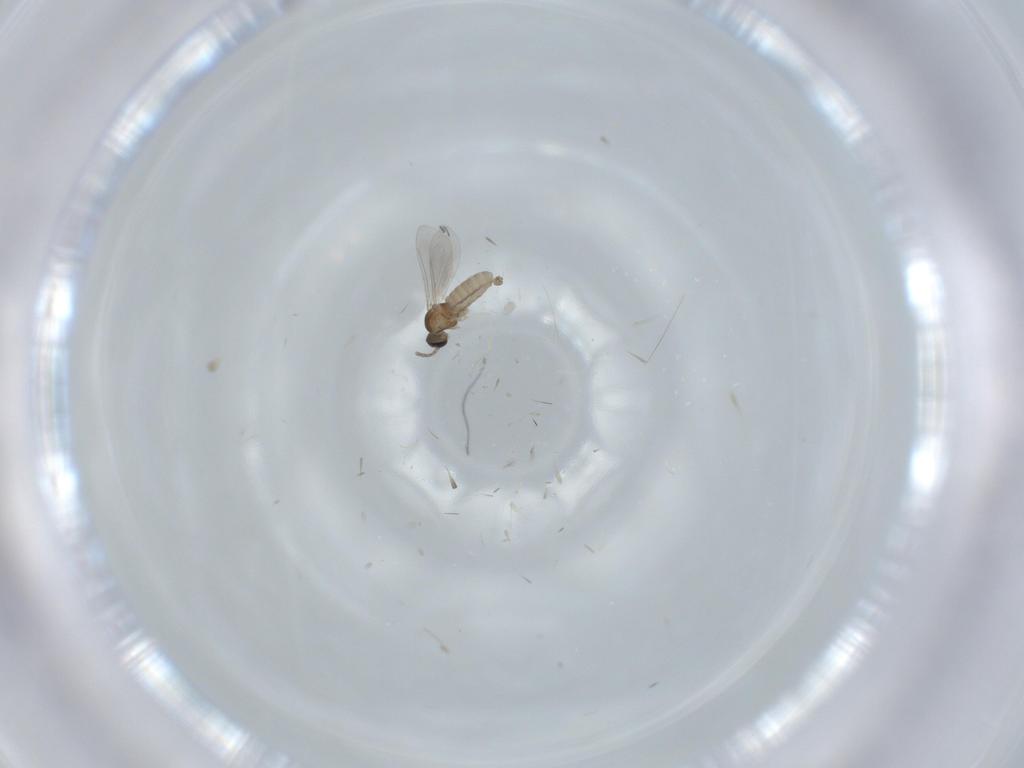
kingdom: Animalia
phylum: Arthropoda
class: Insecta
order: Diptera
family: Cecidomyiidae
